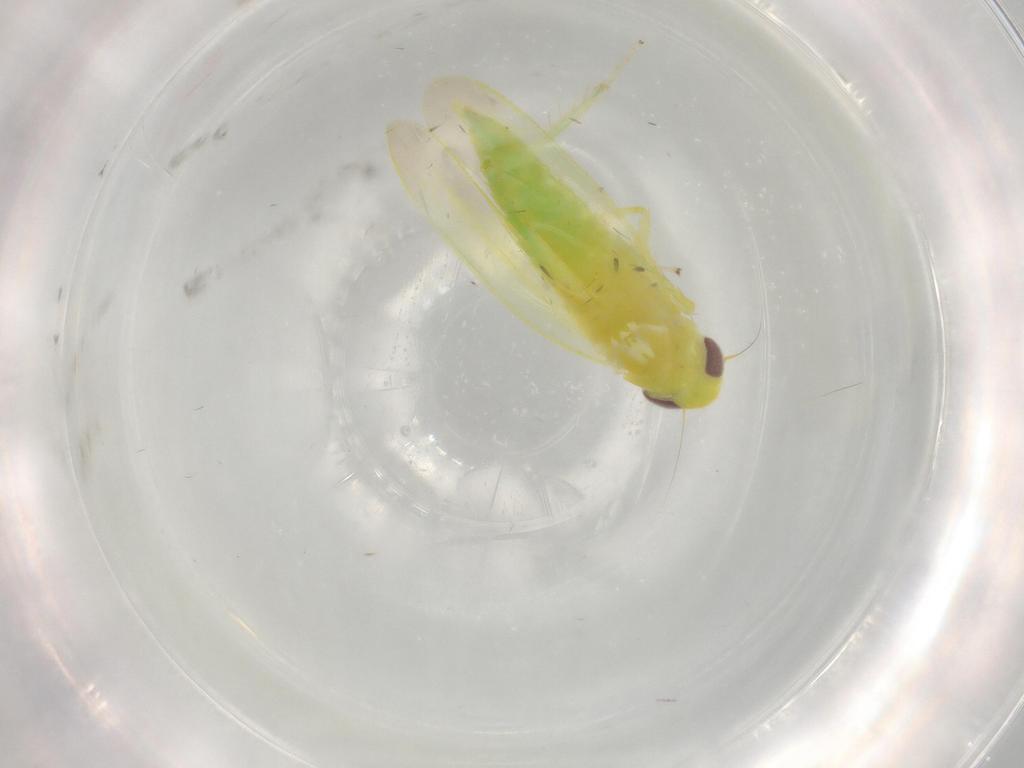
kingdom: Animalia
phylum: Arthropoda
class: Insecta
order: Hemiptera
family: Cicadellidae
